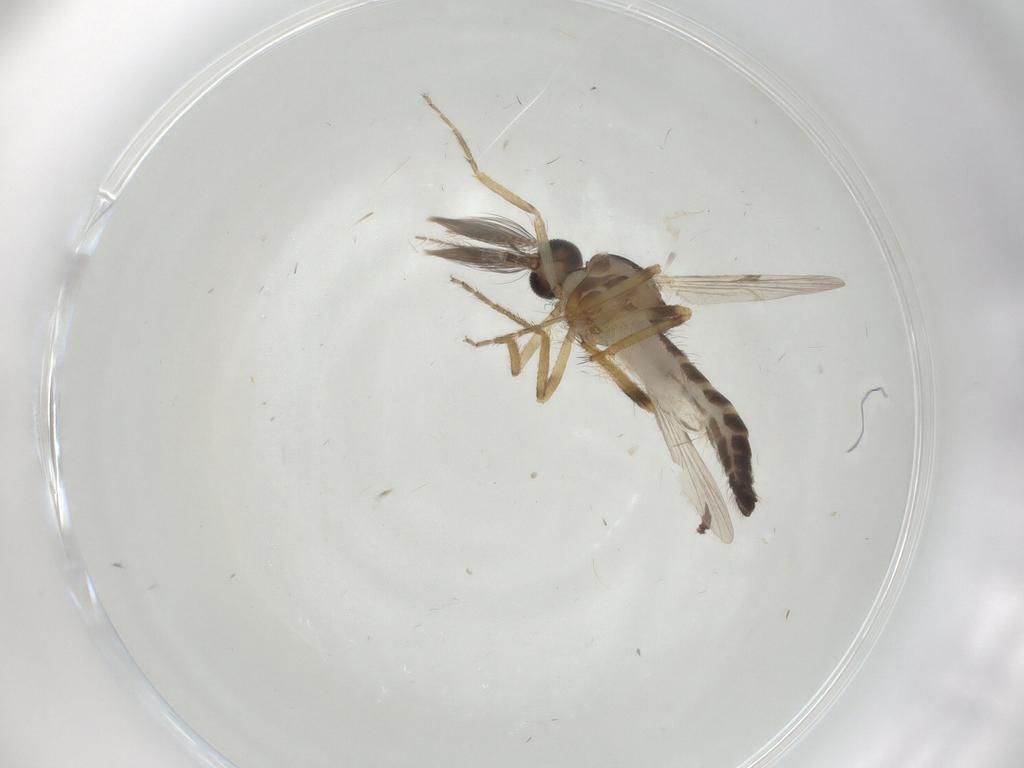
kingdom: Animalia
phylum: Arthropoda
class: Insecta
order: Diptera
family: Ceratopogonidae
